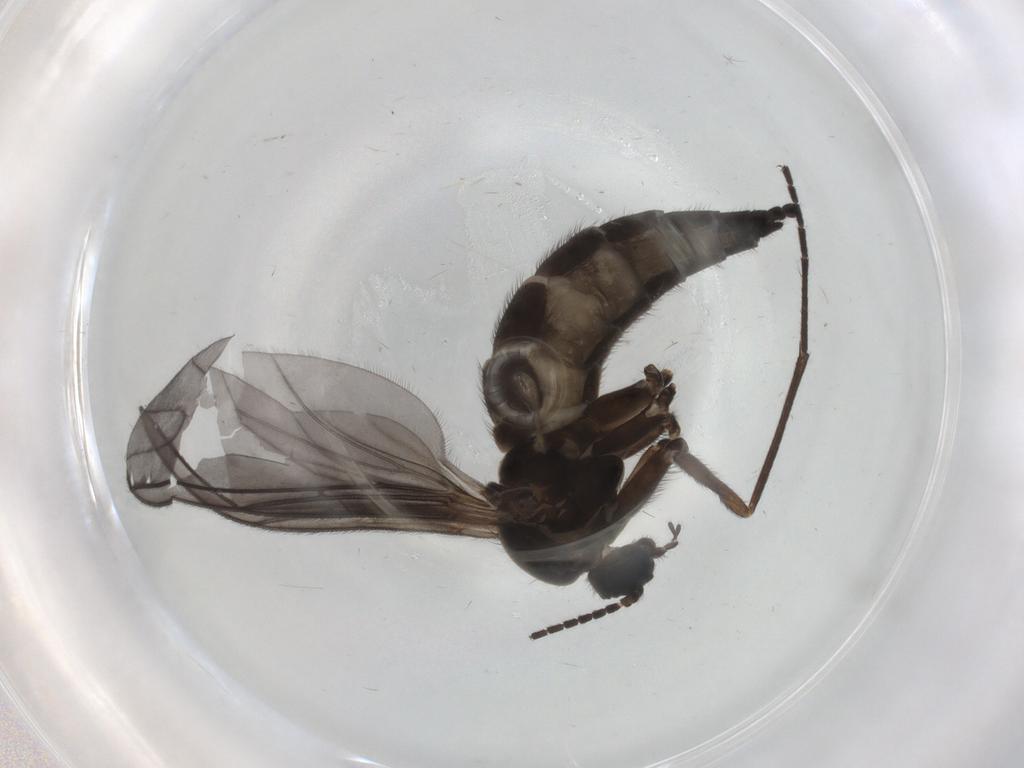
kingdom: Animalia
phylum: Arthropoda
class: Insecta
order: Diptera
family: Sciaridae
